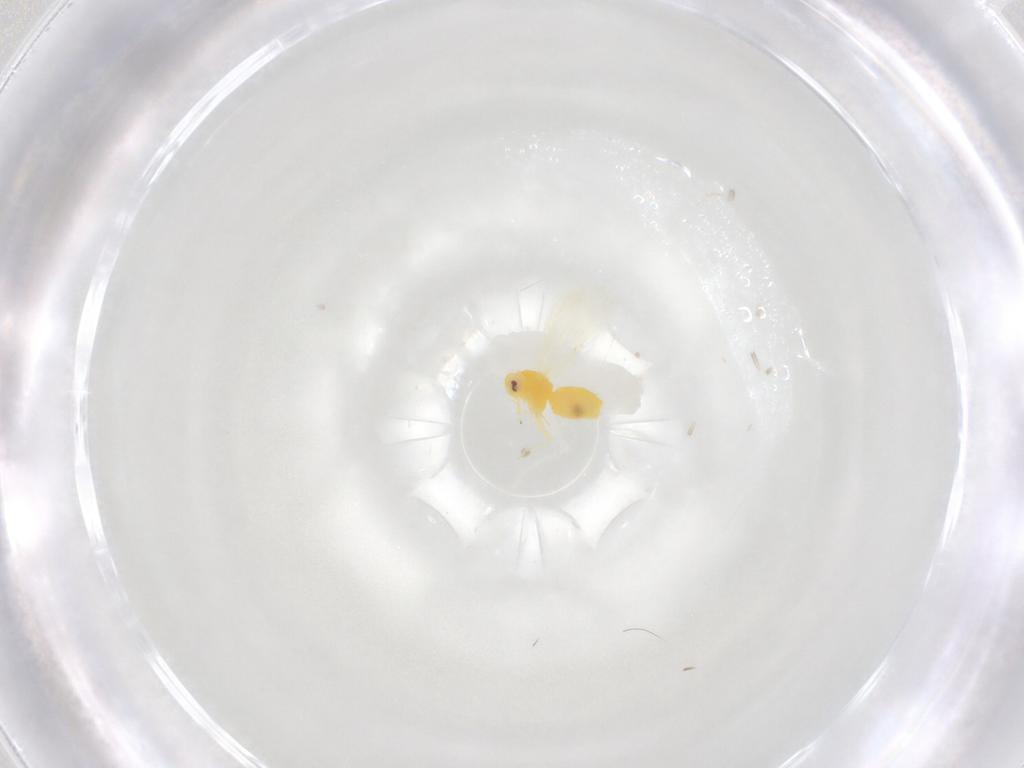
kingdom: Animalia
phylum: Arthropoda
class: Insecta
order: Hemiptera
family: Aleyrodidae
